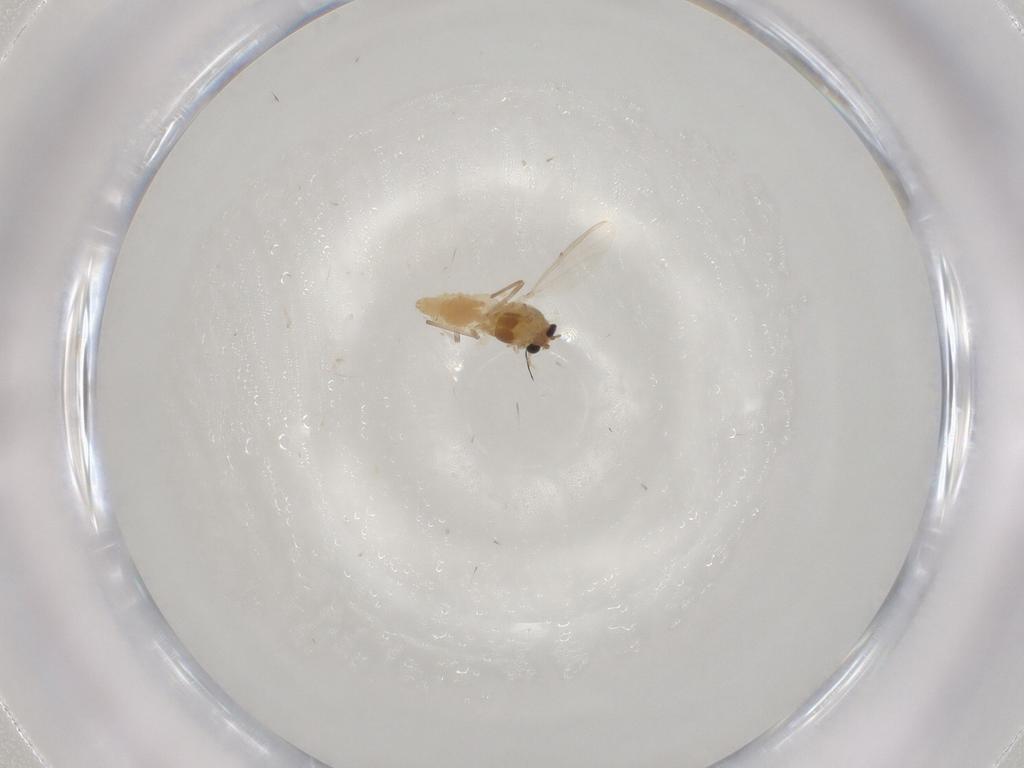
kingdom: Animalia
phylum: Arthropoda
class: Insecta
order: Diptera
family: Chironomidae
